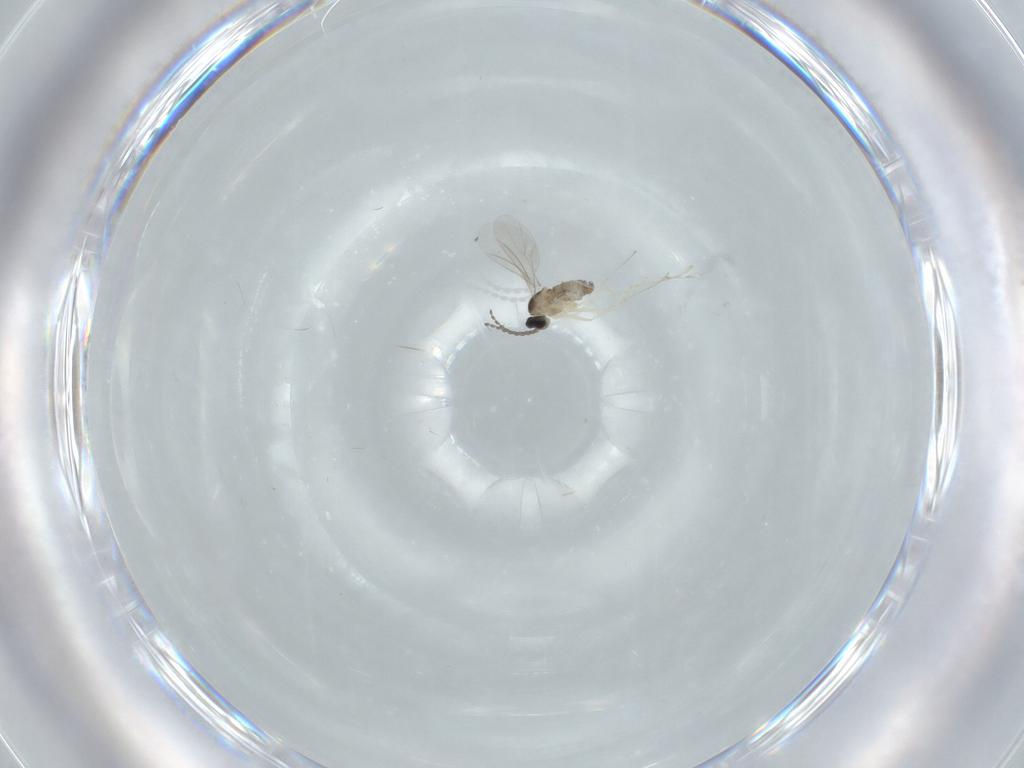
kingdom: Animalia
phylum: Arthropoda
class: Insecta
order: Diptera
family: Cecidomyiidae
